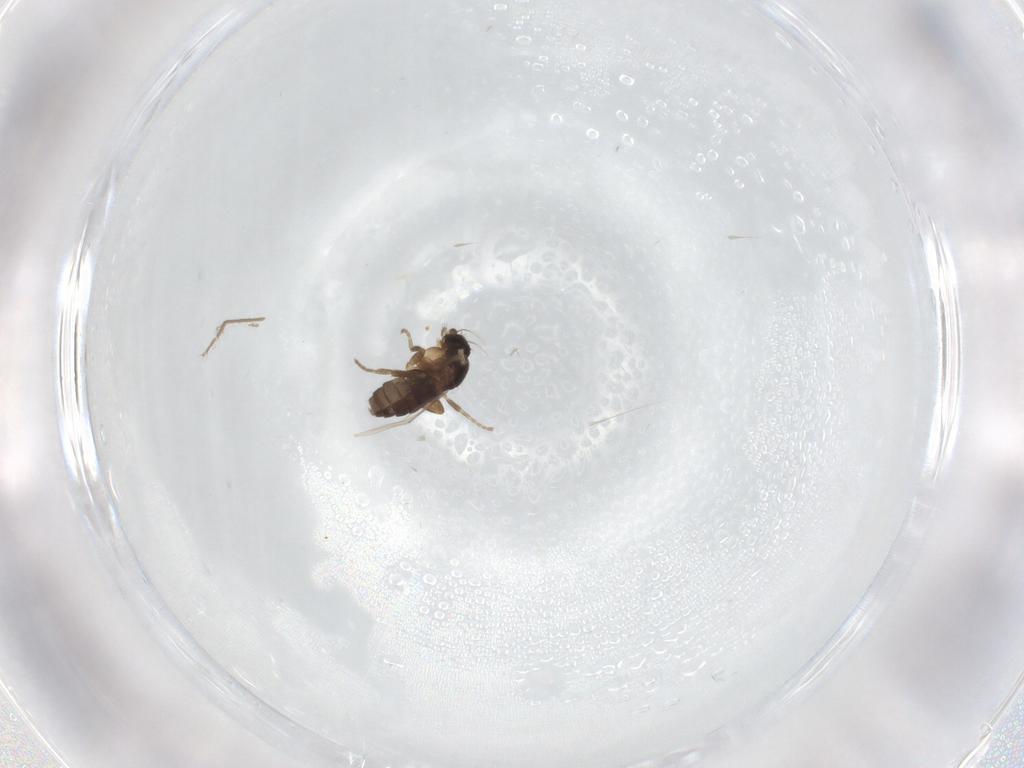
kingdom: Animalia
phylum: Arthropoda
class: Insecta
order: Diptera
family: Phoridae
